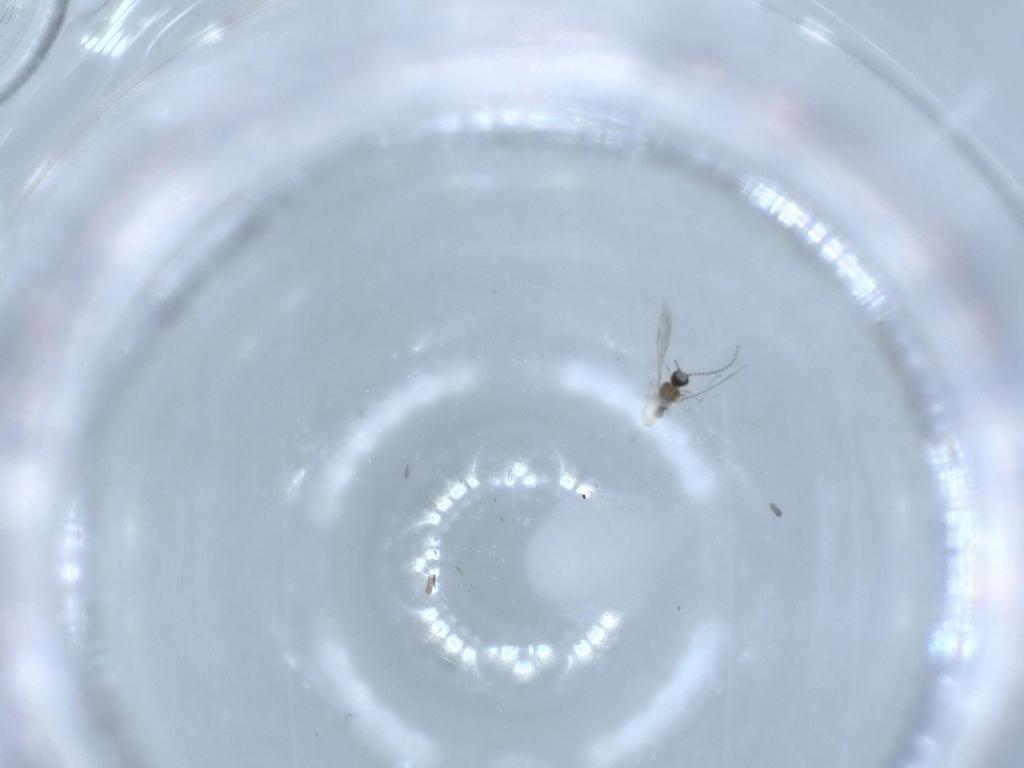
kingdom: Animalia
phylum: Arthropoda
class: Insecta
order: Diptera
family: Cecidomyiidae
